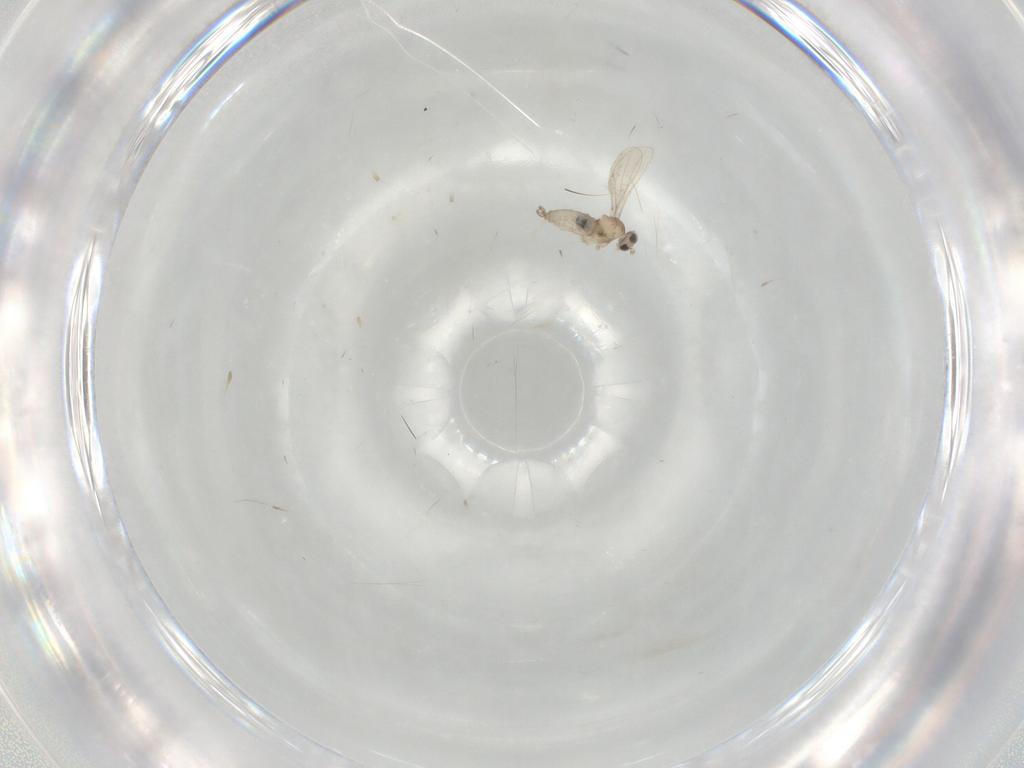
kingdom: Animalia
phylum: Arthropoda
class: Insecta
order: Diptera
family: Cecidomyiidae
